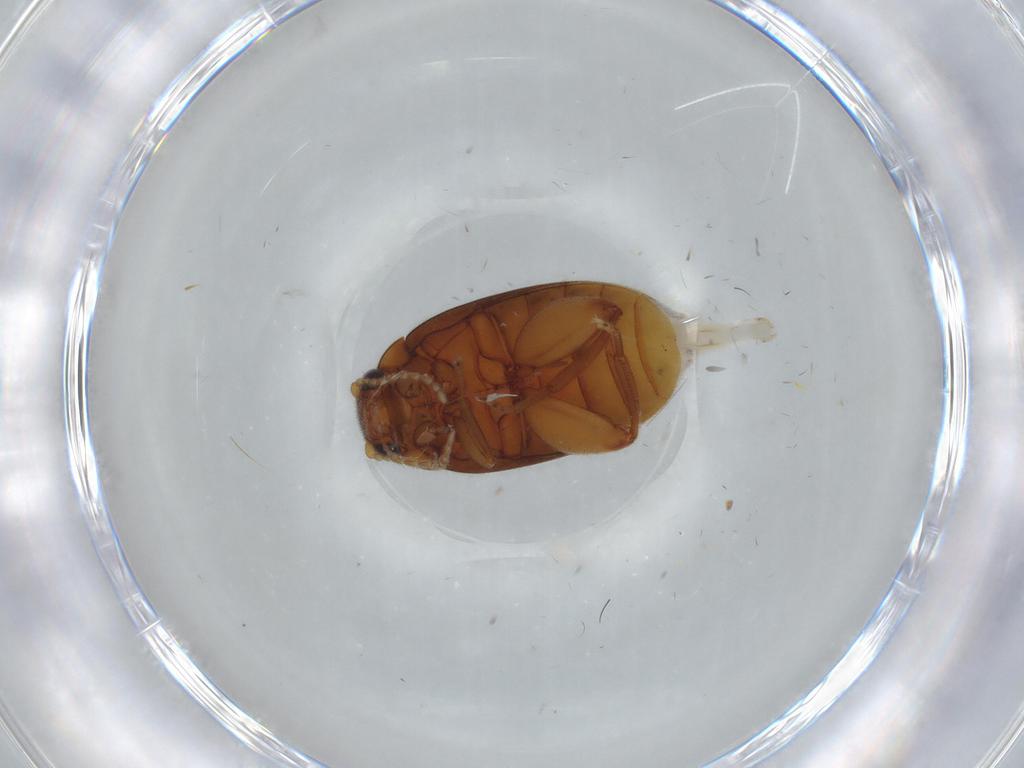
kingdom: Animalia
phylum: Arthropoda
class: Insecta
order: Coleoptera
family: Scirtidae
